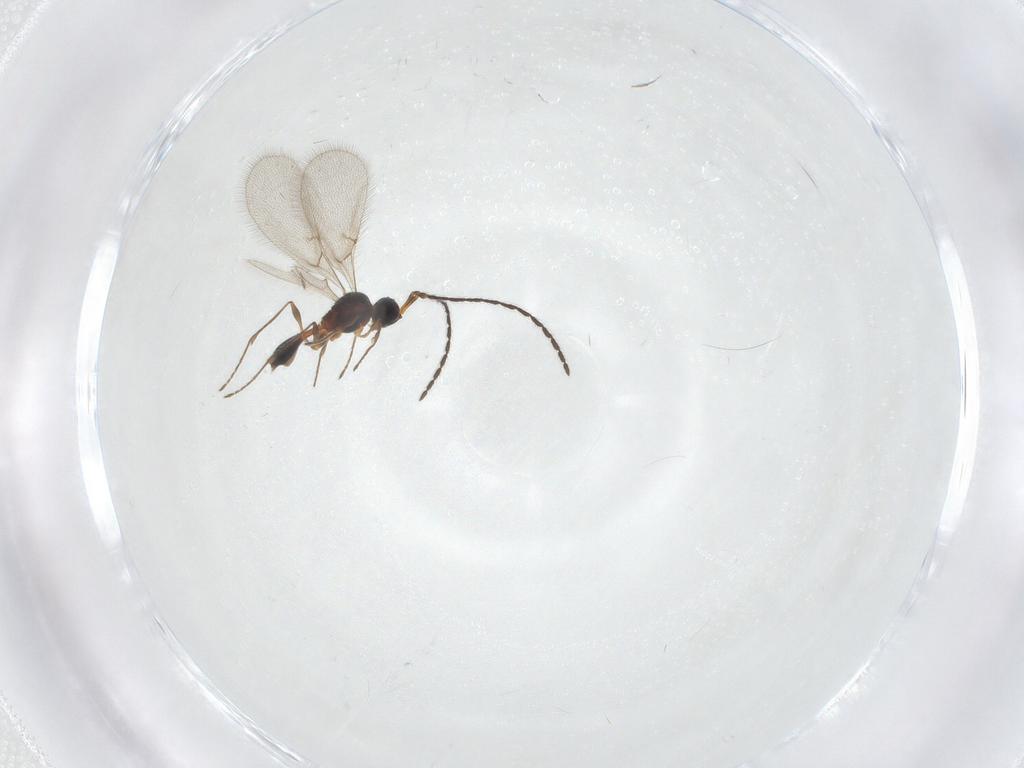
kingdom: Animalia
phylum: Arthropoda
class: Insecta
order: Hymenoptera
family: Diapriidae
